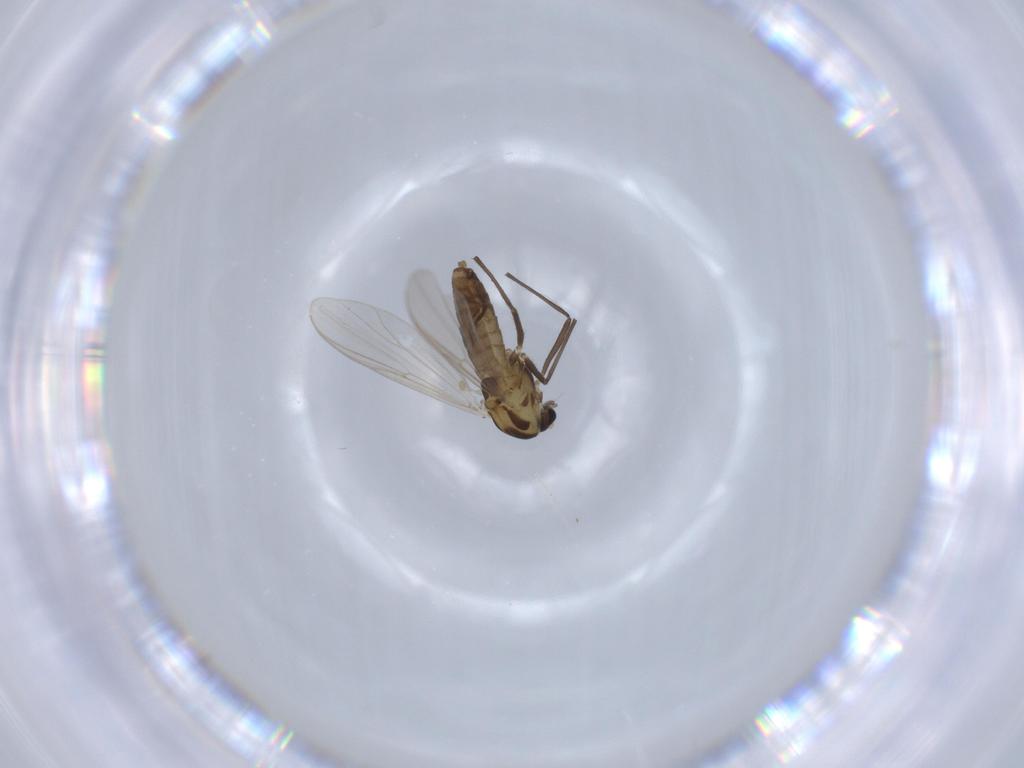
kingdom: Animalia
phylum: Arthropoda
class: Insecta
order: Diptera
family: Chironomidae
